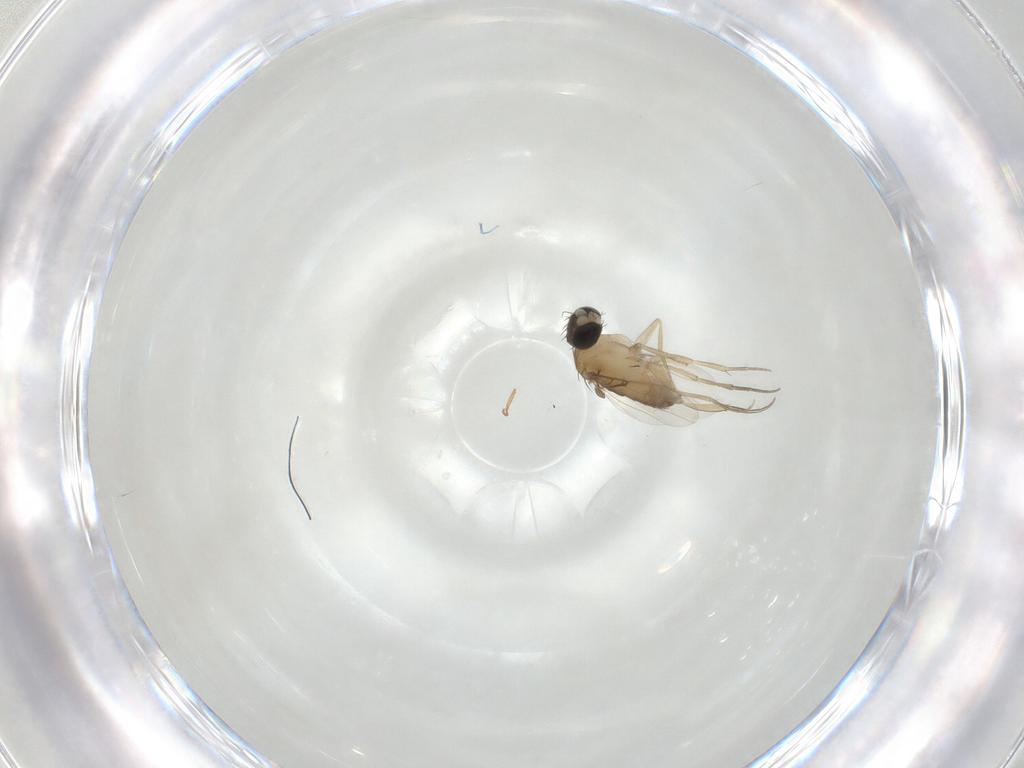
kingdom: Animalia
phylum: Arthropoda
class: Insecta
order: Diptera
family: Phoridae
